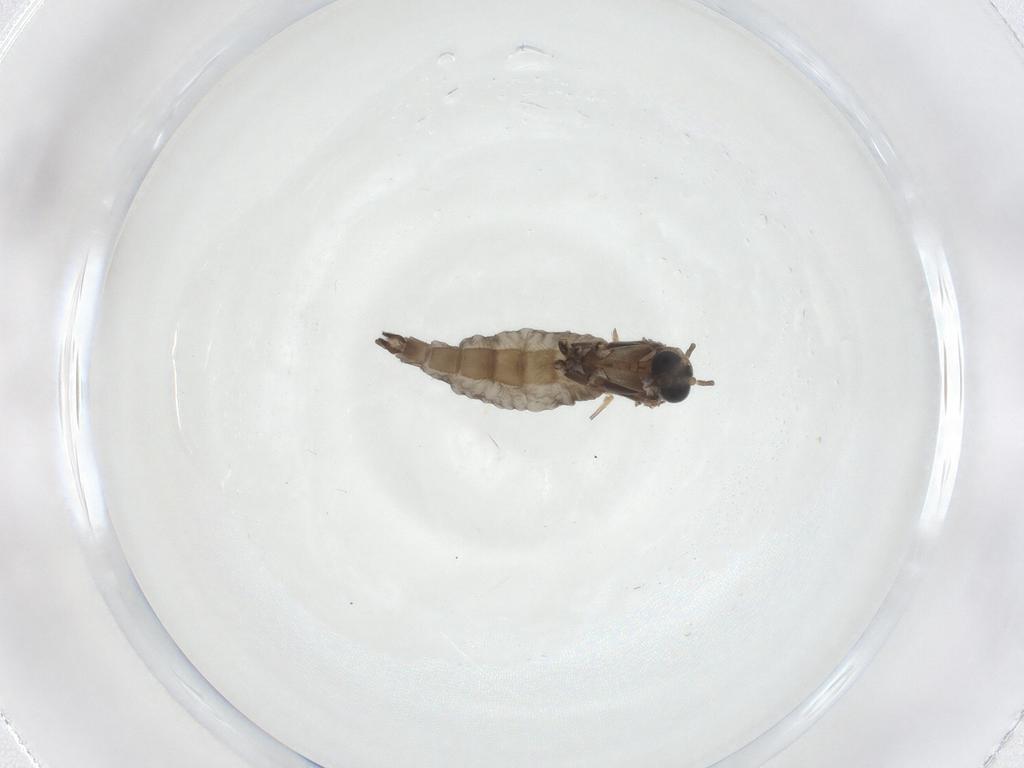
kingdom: Animalia
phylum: Arthropoda
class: Insecta
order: Diptera
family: Sciaridae
